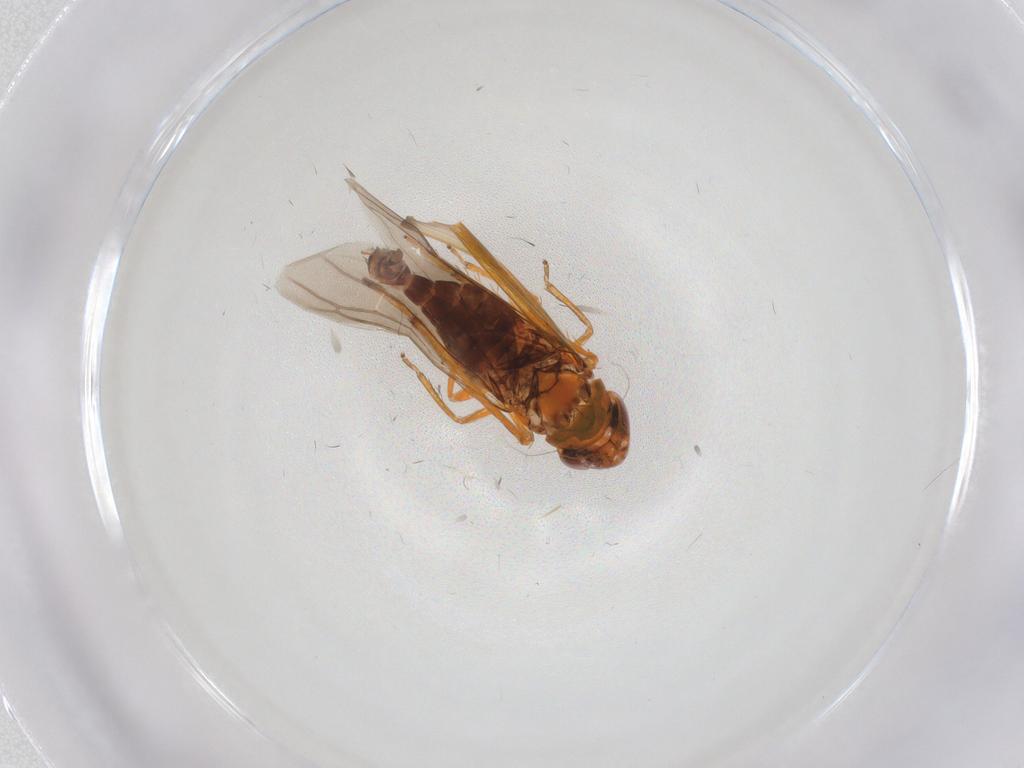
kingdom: Animalia
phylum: Arthropoda
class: Insecta
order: Hemiptera
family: Cicadellidae
